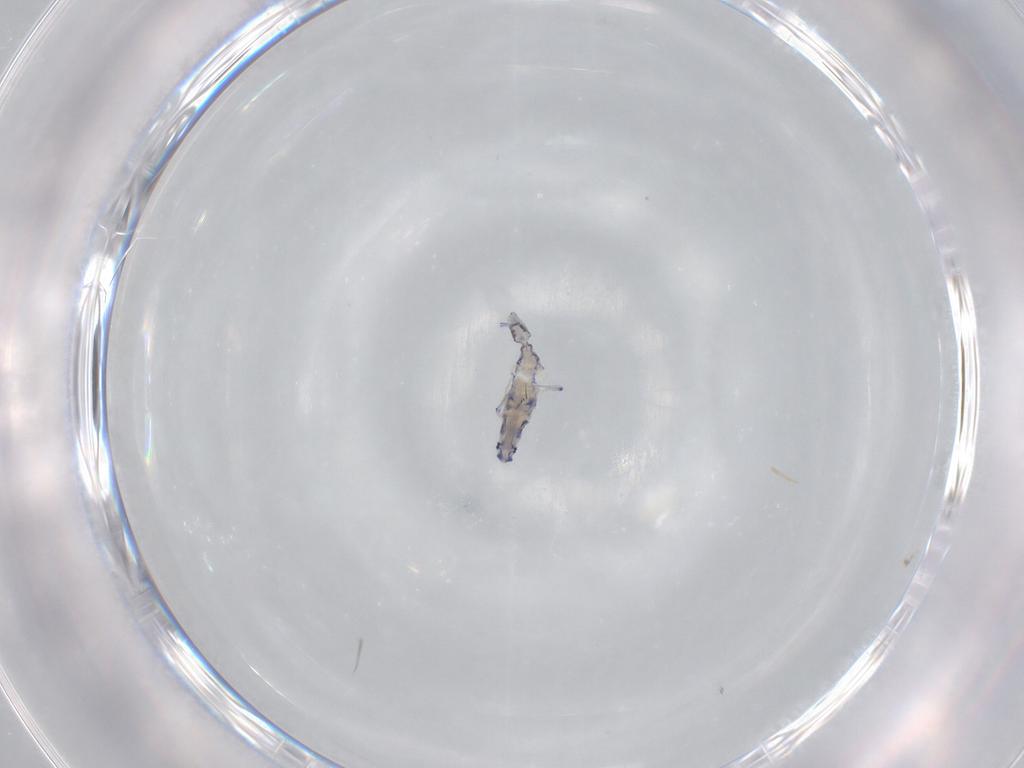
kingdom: Animalia
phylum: Arthropoda
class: Collembola
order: Entomobryomorpha
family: Entomobryidae
